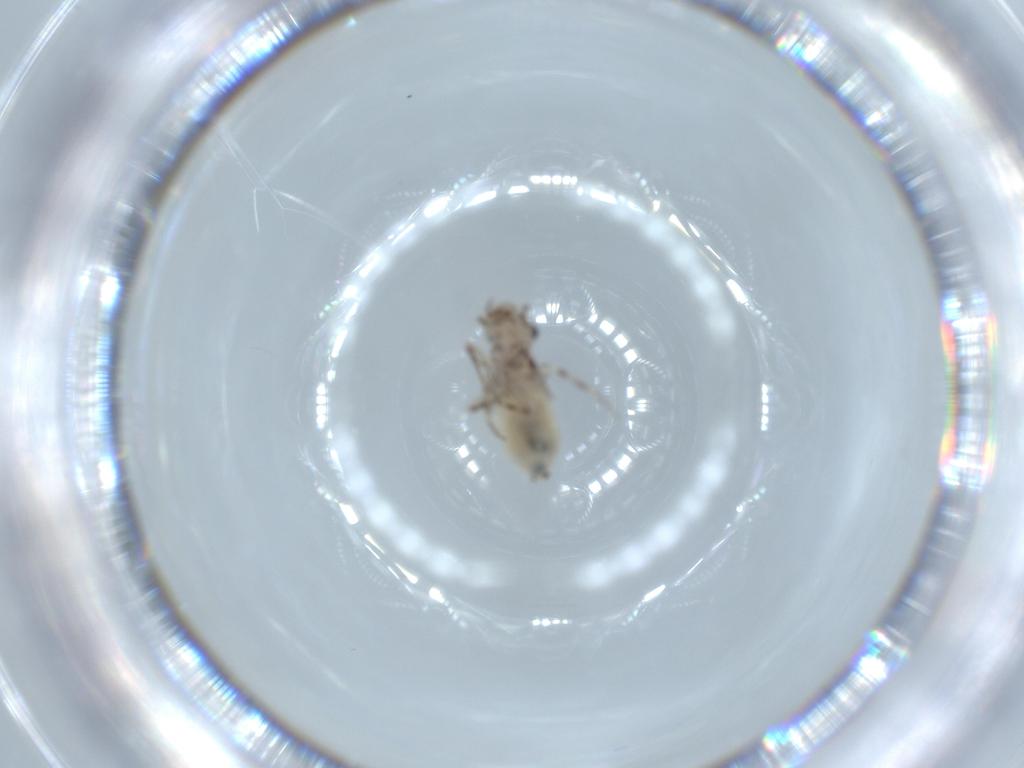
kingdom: Animalia
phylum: Arthropoda
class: Insecta
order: Psocodea
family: Lepidopsocidae
